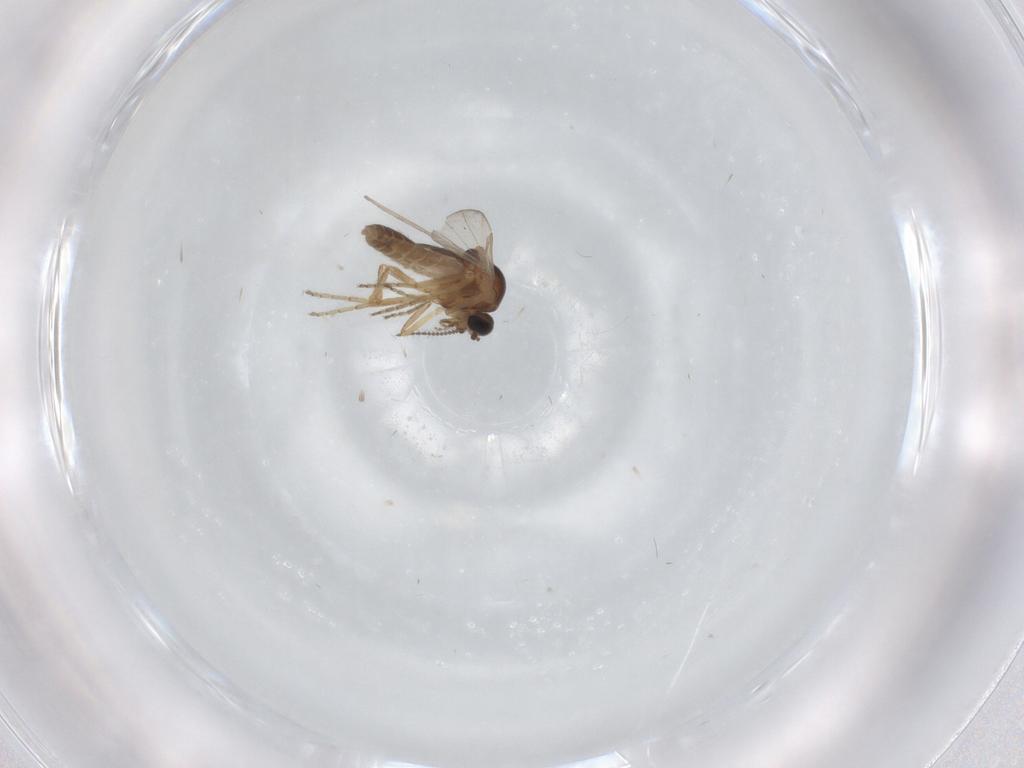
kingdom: Animalia
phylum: Arthropoda
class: Insecta
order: Diptera
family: Ceratopogonidae
